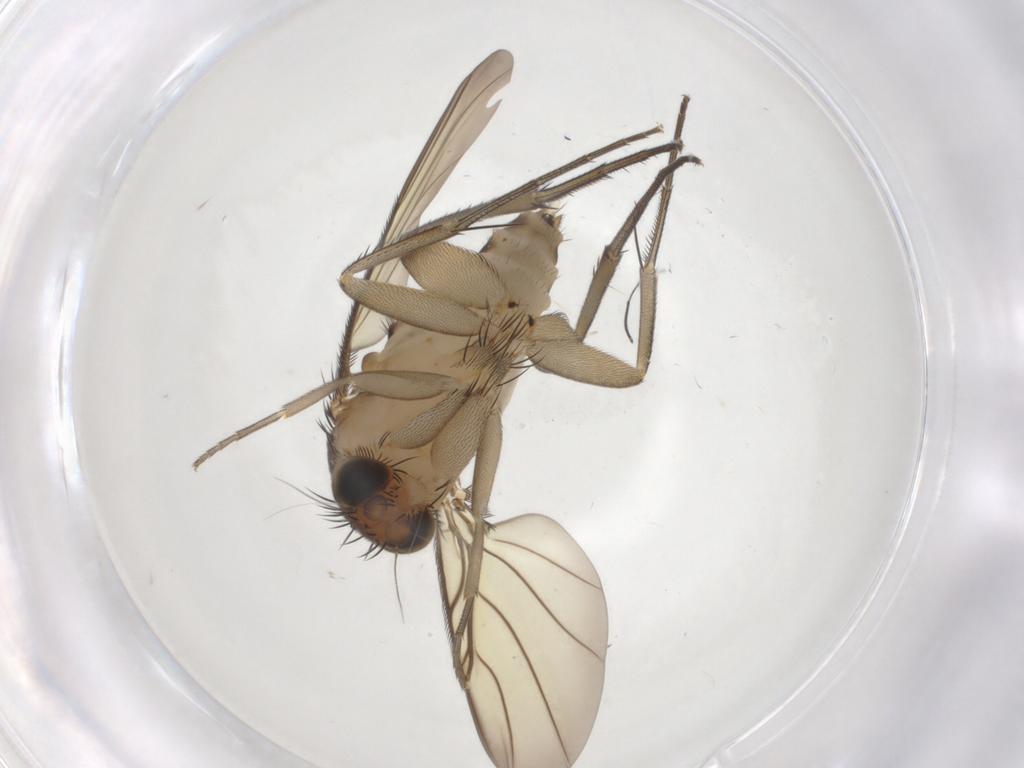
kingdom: Animalia
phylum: Arthropoda
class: Insecta
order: Diptera
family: Phoridae
